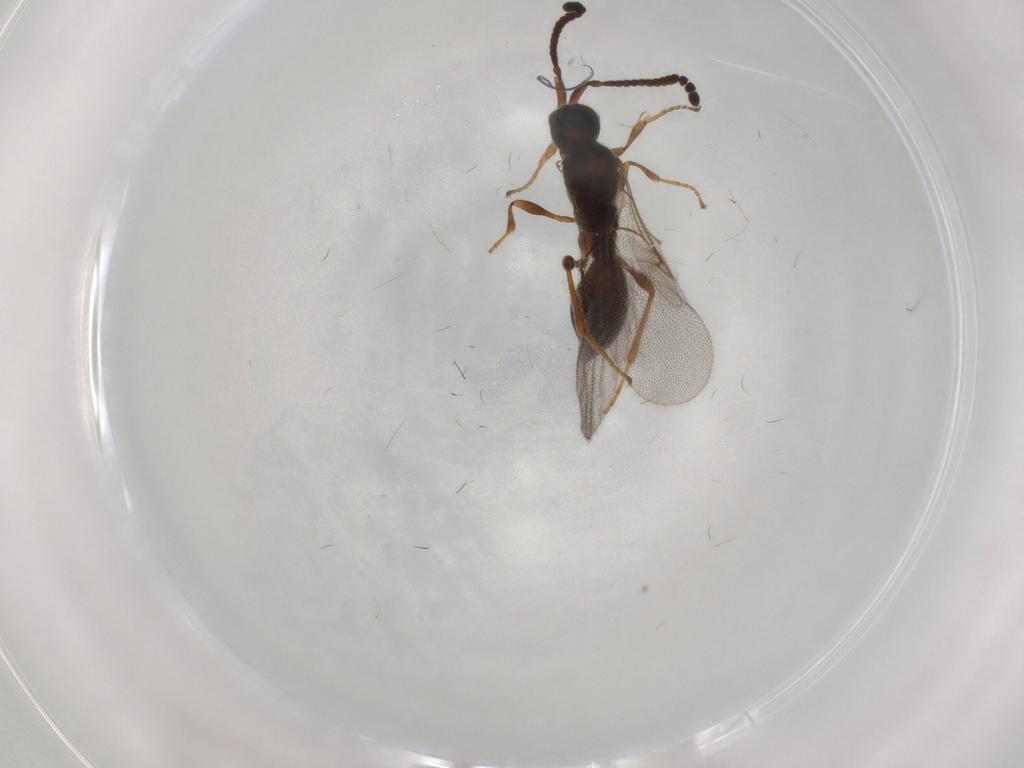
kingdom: Animalia
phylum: Arthropoda
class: Insecta
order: Hymenoptera
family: Diapriidae
